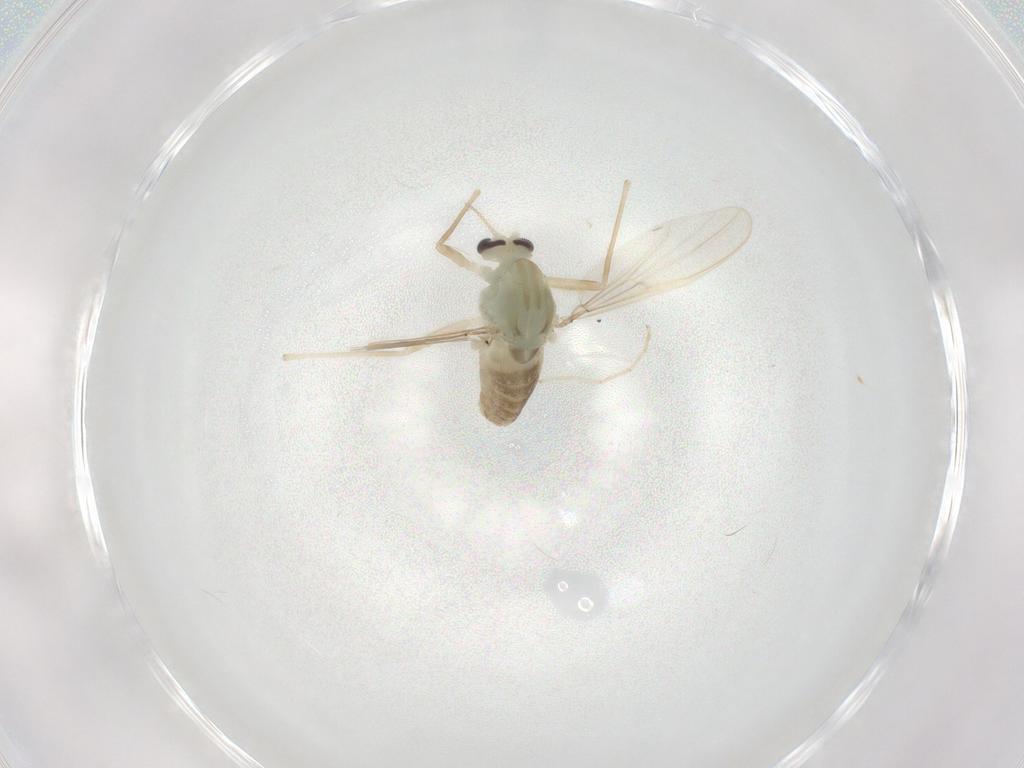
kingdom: Animalia
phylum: Arthropoda
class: Insecta
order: Diptera
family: Chironomidae
